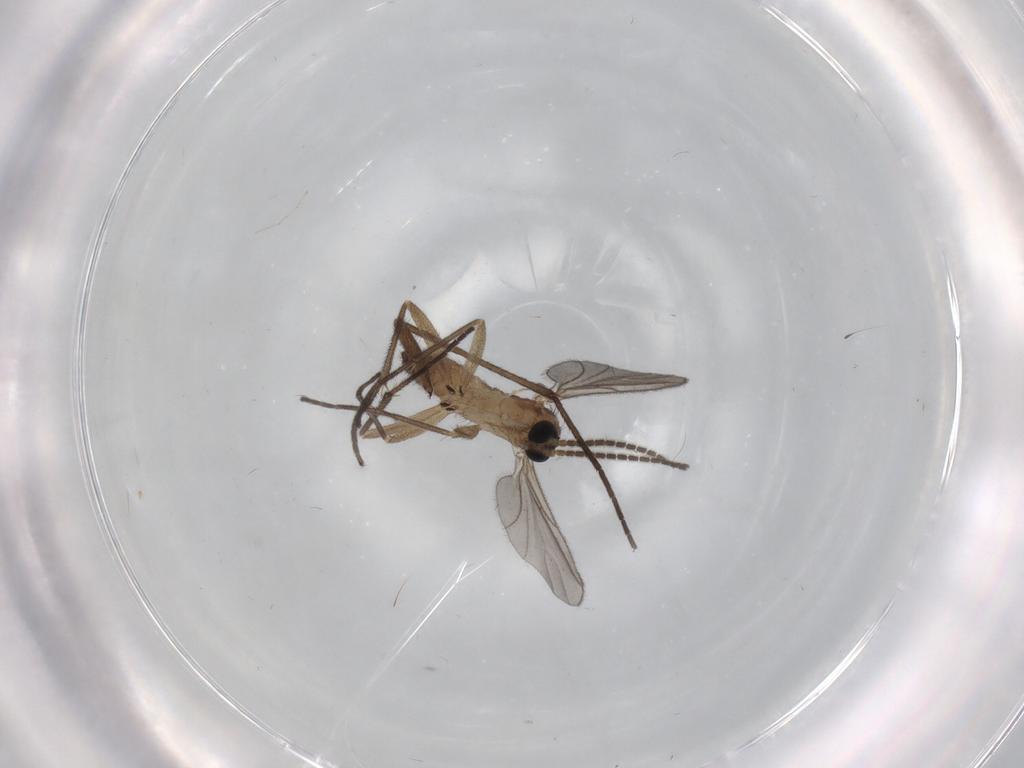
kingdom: Animalia
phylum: Arthropoda
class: Insecta
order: Diptera
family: Sciaridae
